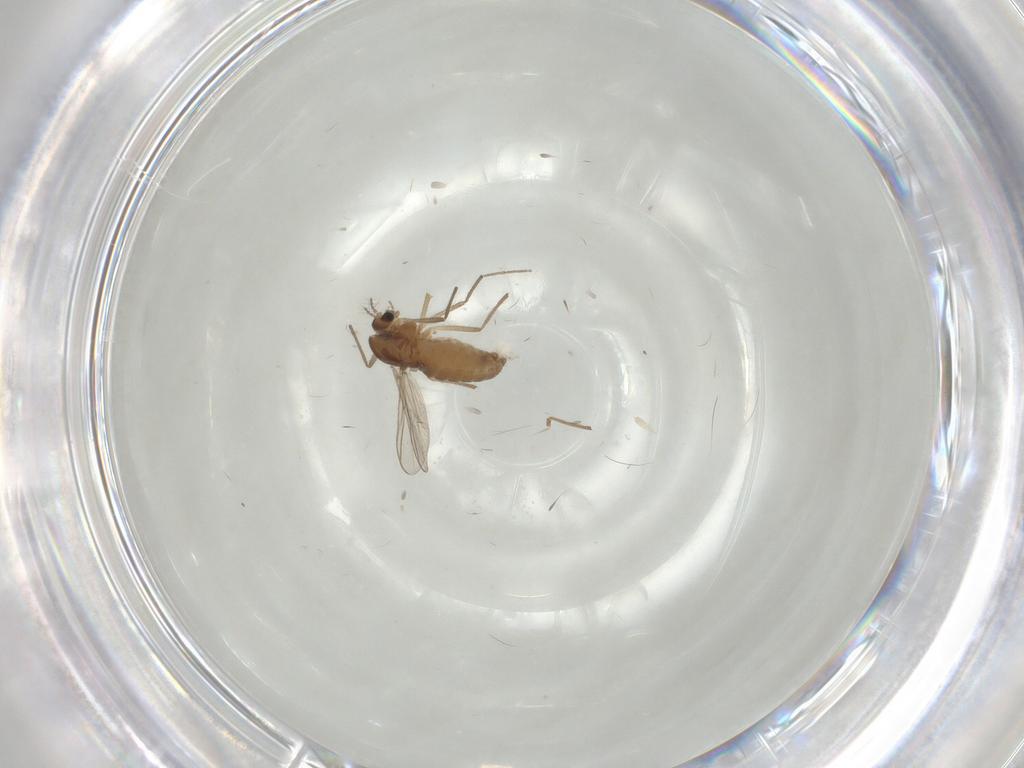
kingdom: Animalia
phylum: Arthropoda
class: Insecta
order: Diptera
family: Chironomidae
